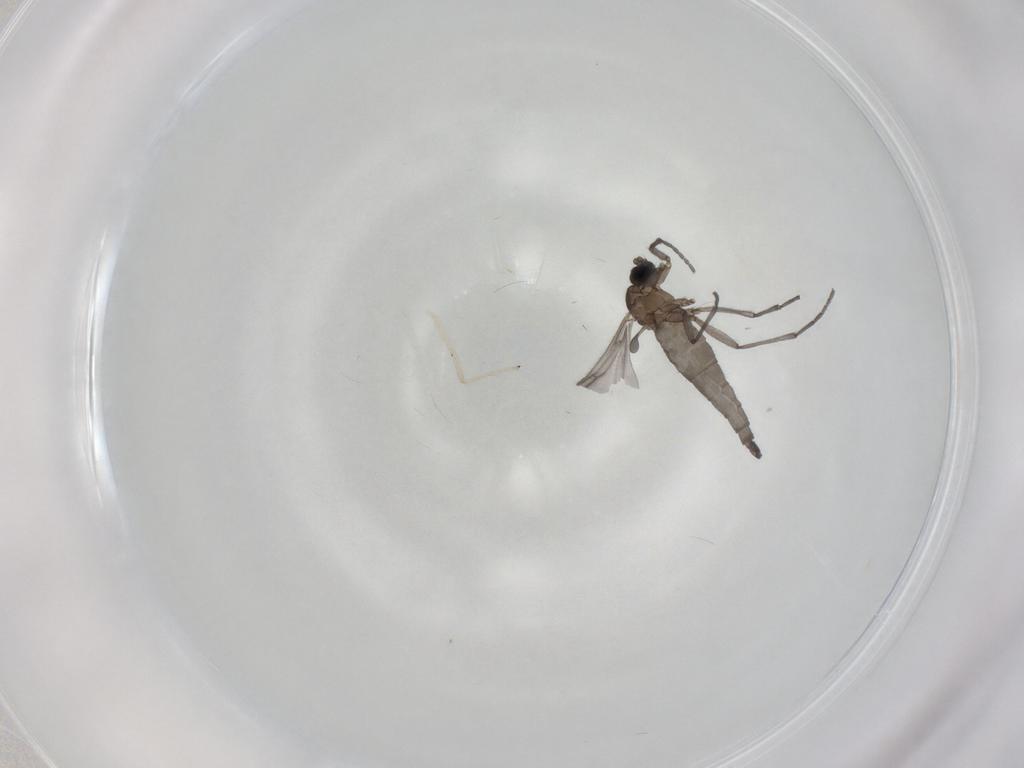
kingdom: Animalia
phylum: Arthropoda
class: Insecta
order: Diptera
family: Sciaridae
